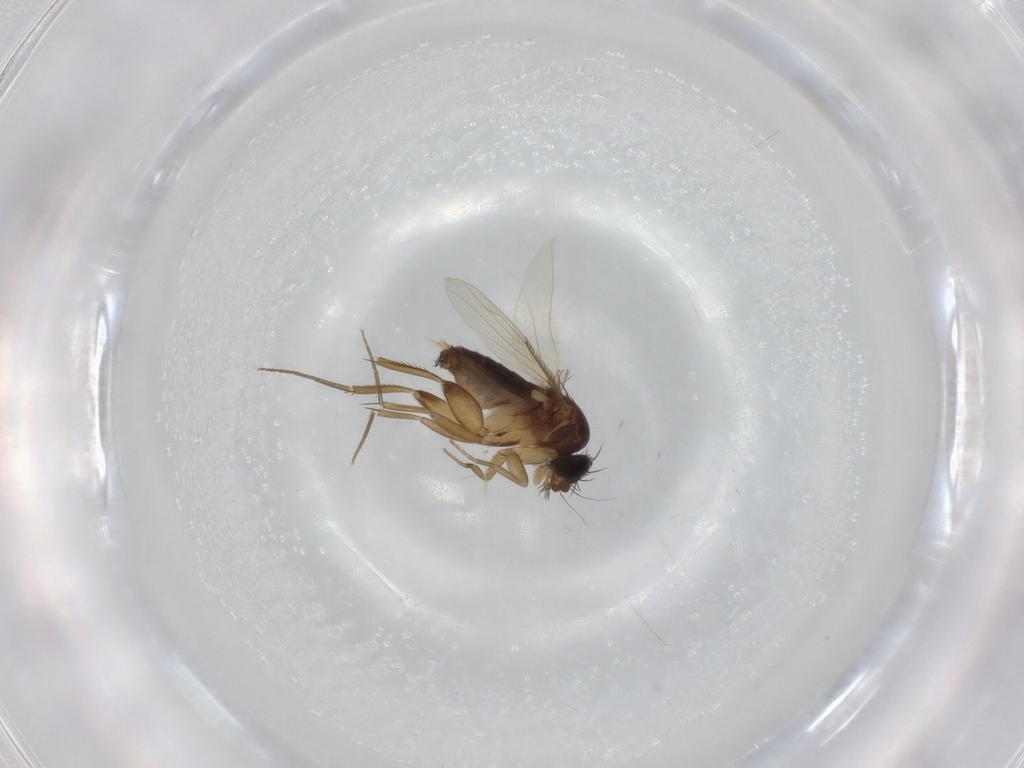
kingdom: Animalia
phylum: Arthropoda
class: Insecta
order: Diptera
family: Phoridae
